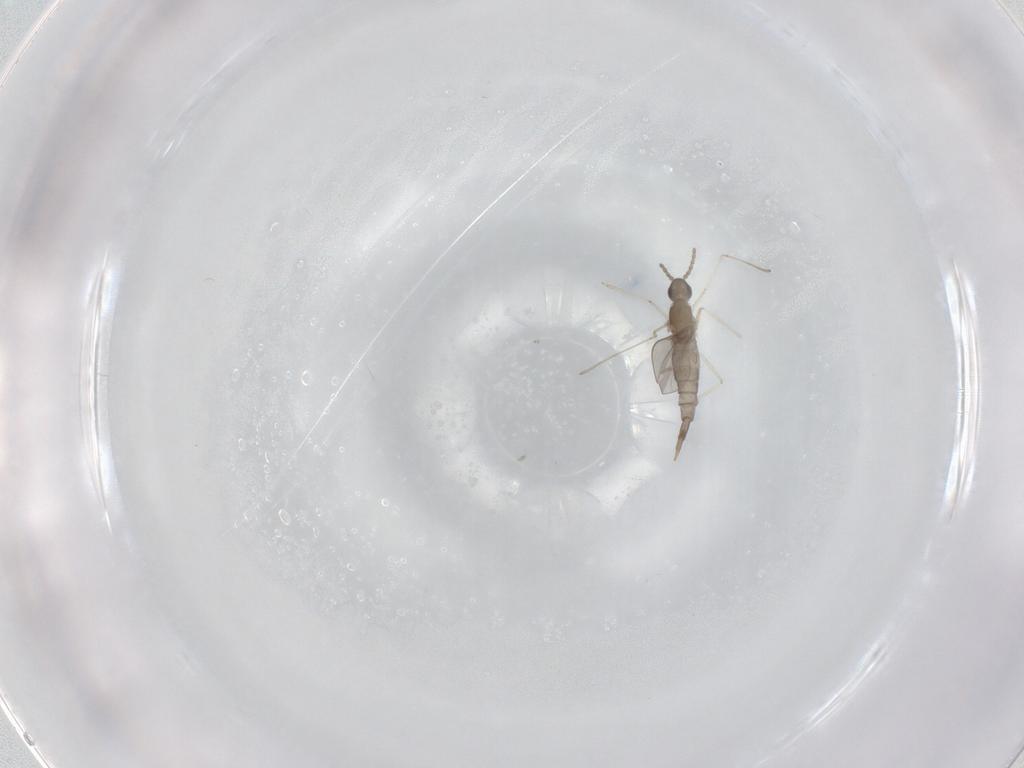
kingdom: Animalia
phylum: Arthropoda
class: Insecta
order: Diptera
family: Cecidomyiidae
